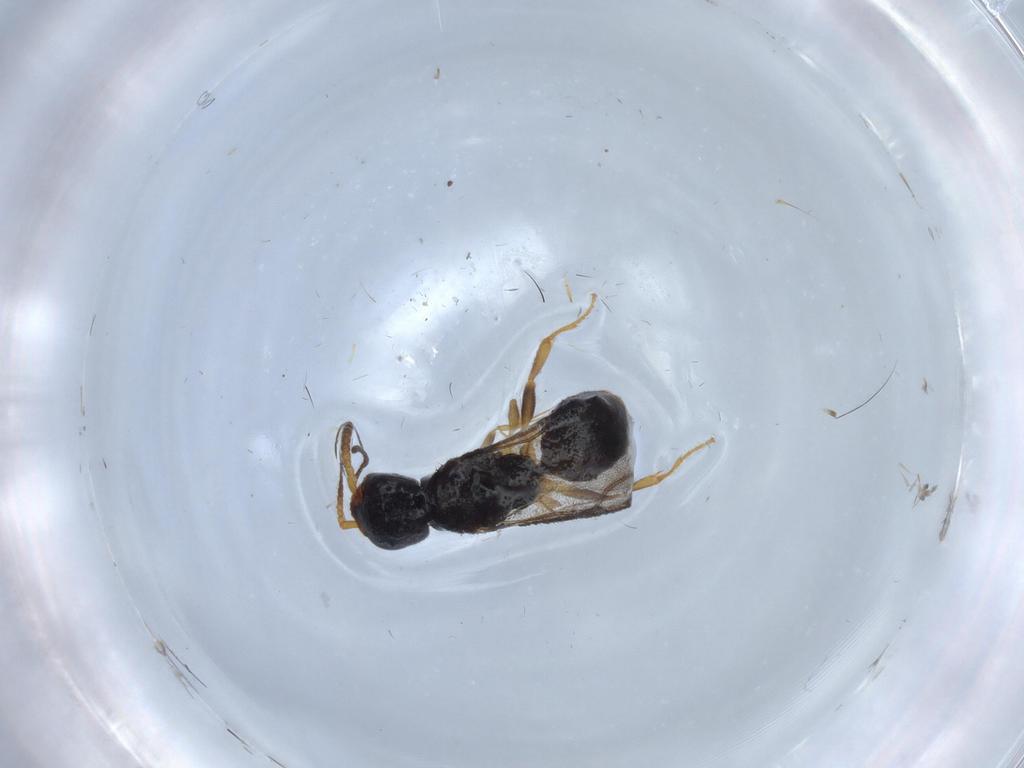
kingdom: Animalia
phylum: Arthropoda
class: Insecta
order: Hymenoptera
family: Bethylidae
